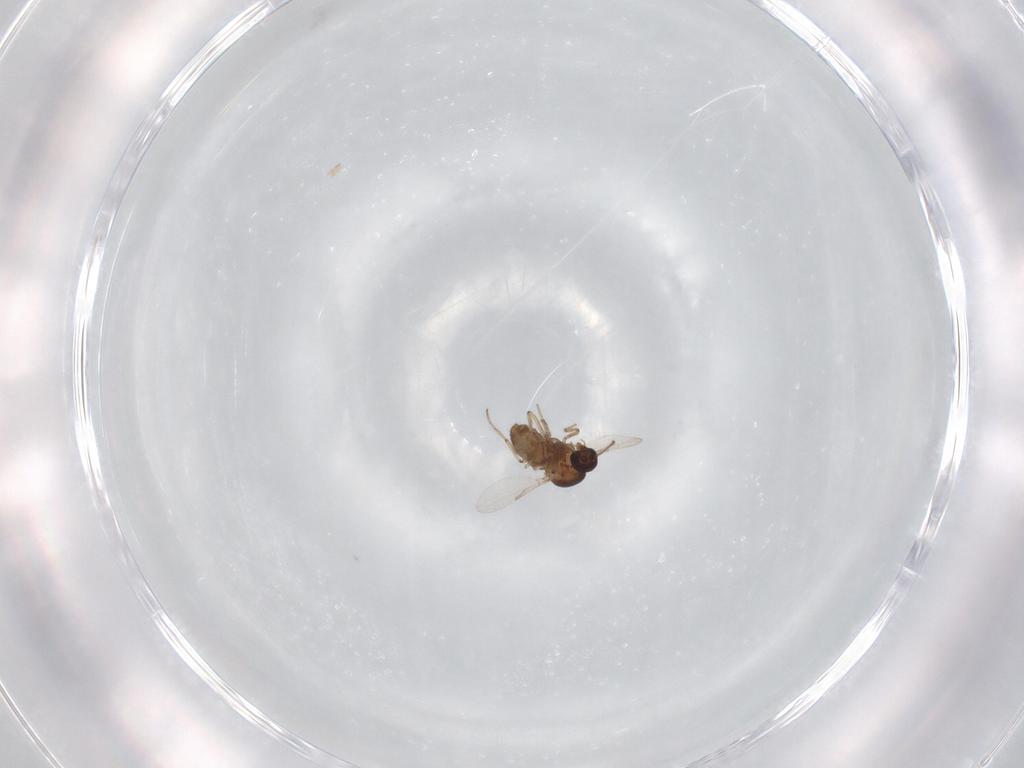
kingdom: Animalia
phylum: Arthropoda
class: Insecta
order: Diptera
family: Ceratopogonidae
